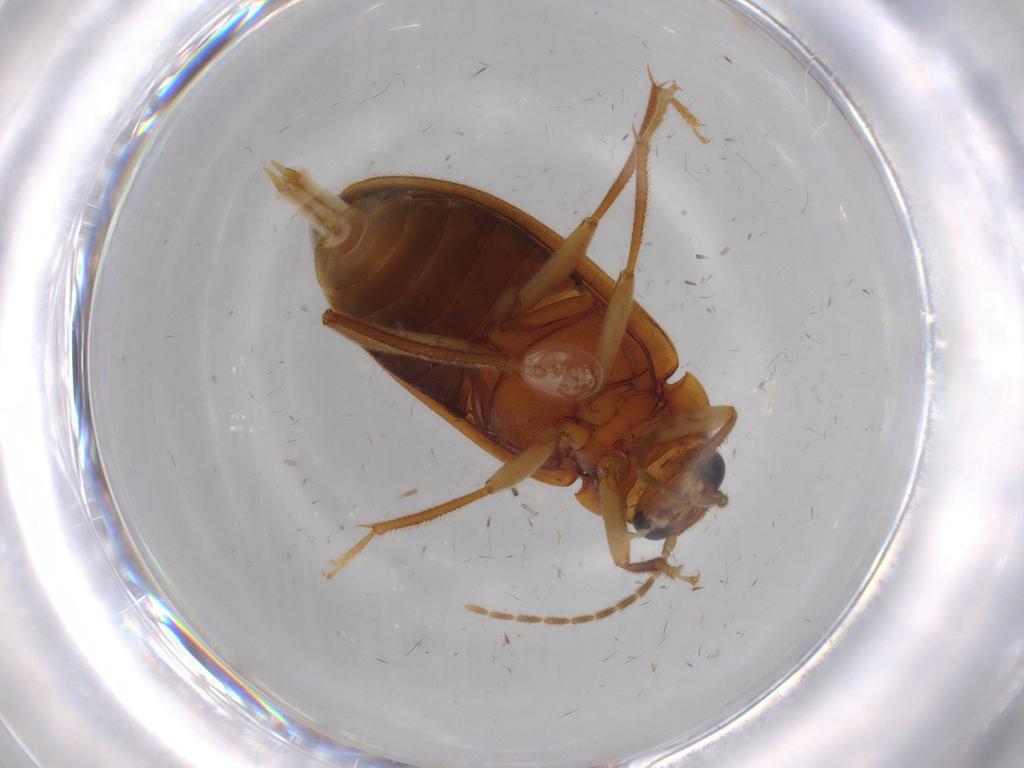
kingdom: Animalia
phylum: Arthropoda
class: Insecta
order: Coleoptera
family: Ptilodactylidae
